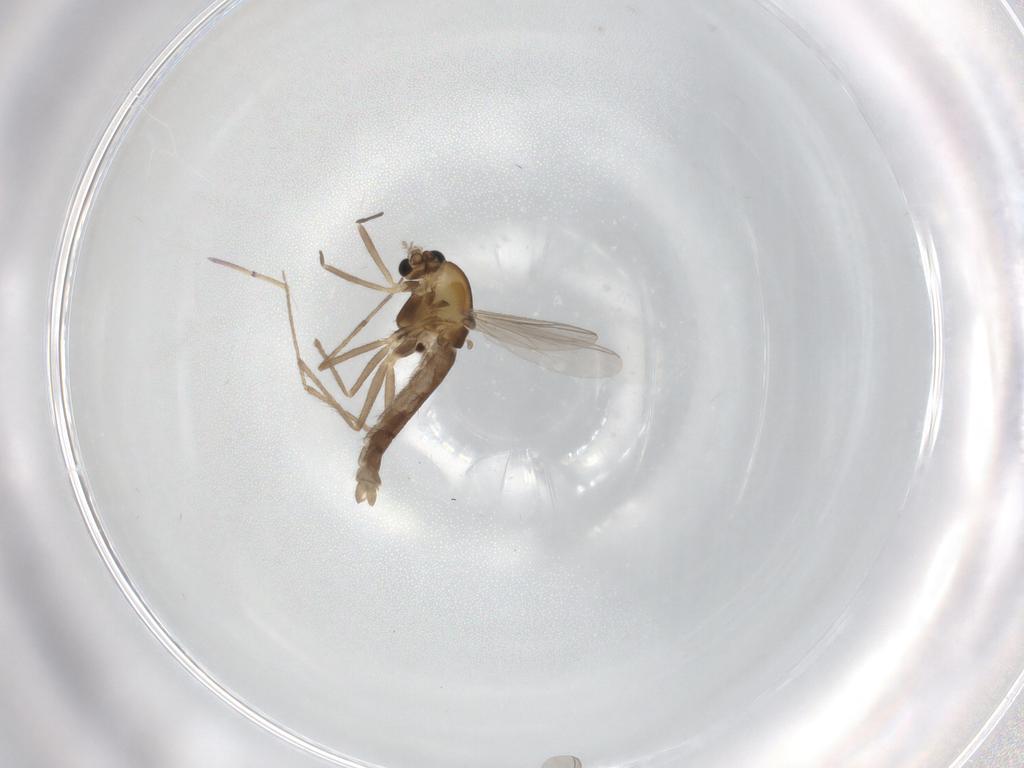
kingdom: Animalia
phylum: Arthropoda
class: Insecta
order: Diptera
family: Chironomidae
